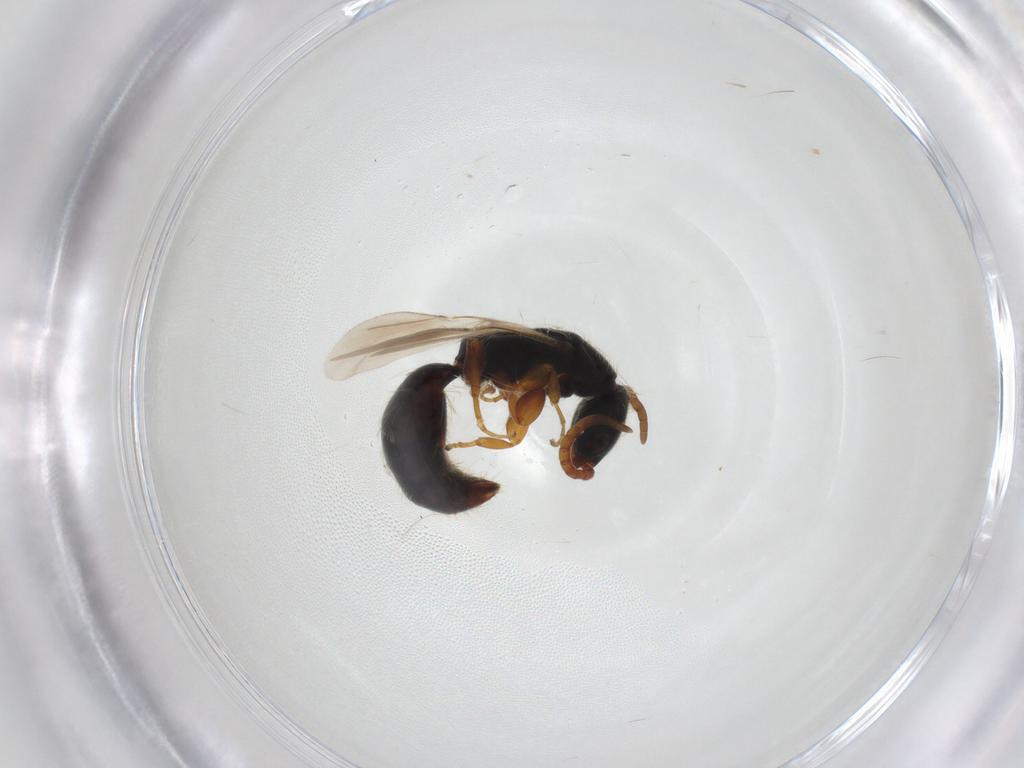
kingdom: Animalia
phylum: Arthropoda
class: Insecta
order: Hymenoptera
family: Bethylidae
